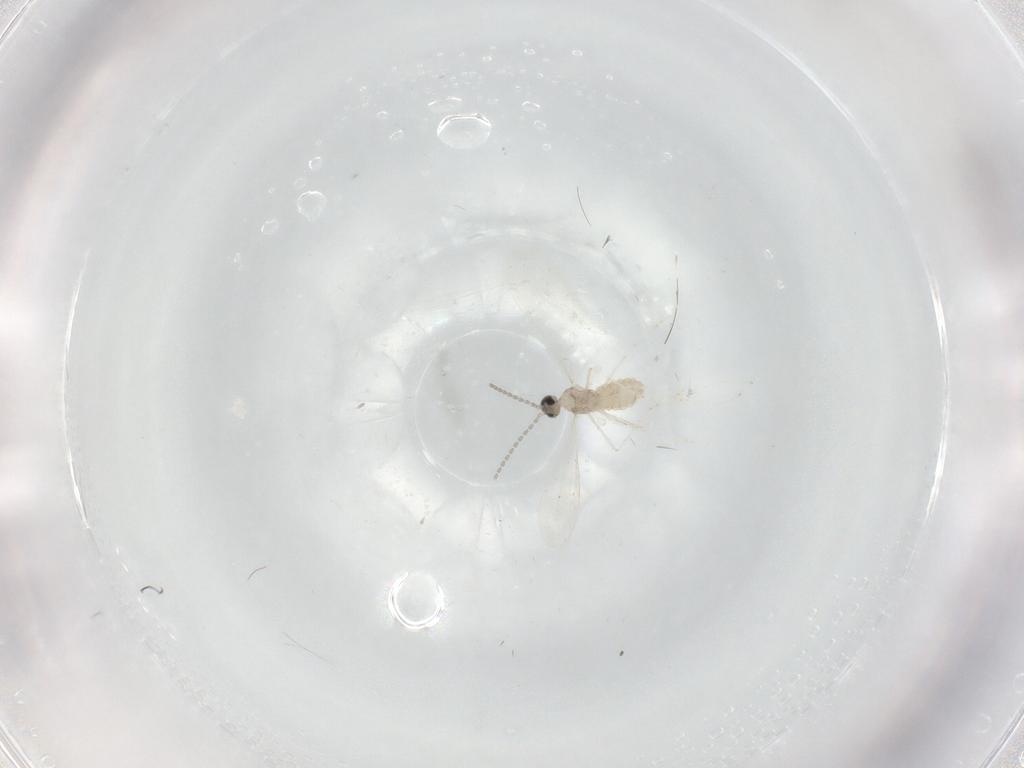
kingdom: Animalia
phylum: Arthropoda
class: Insecta
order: Diptera
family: Cecidomyiidae
